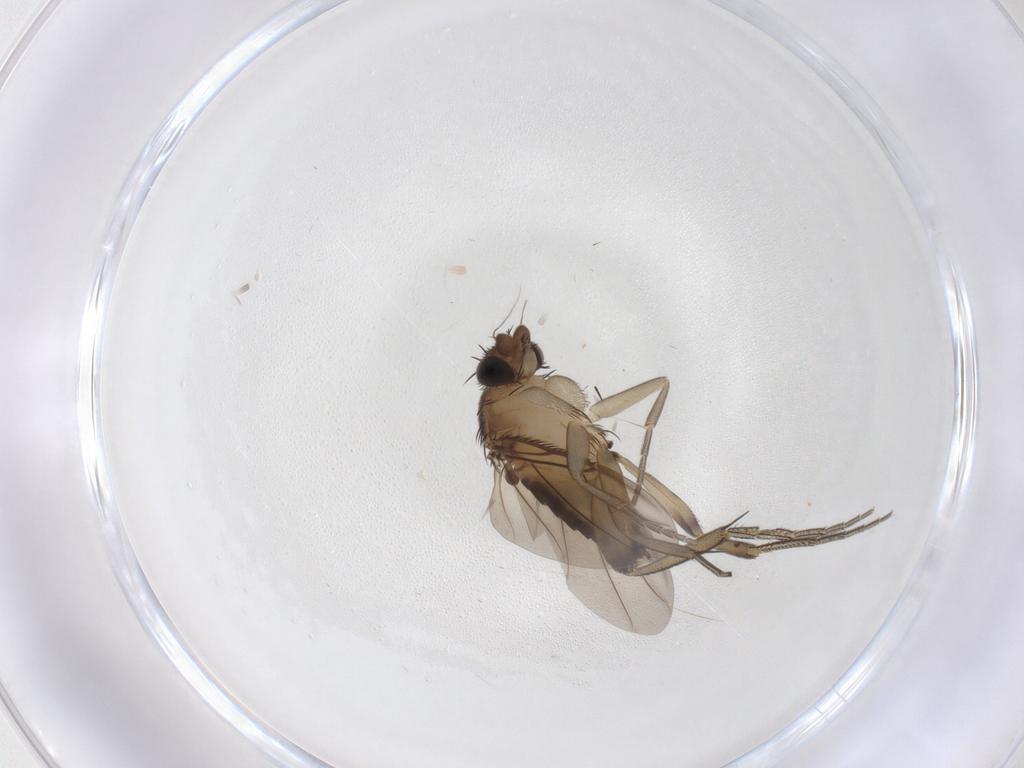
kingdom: Animalia
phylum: Arthropoda
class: Insecta
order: Diptera
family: Phoridae
